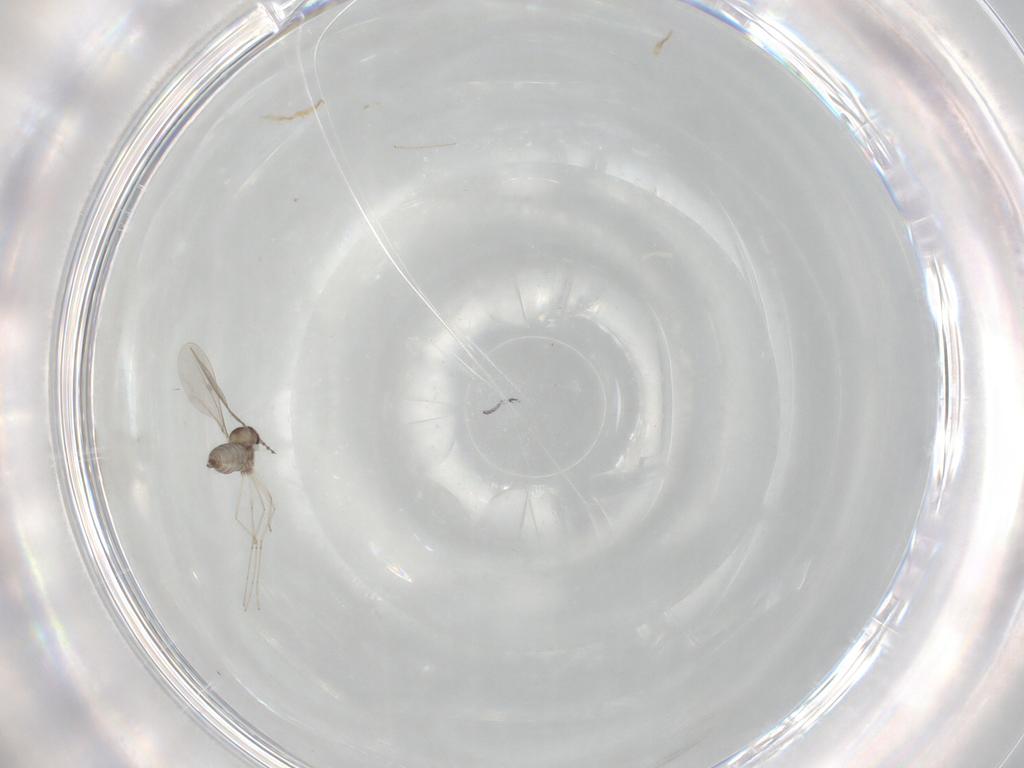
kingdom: Animalia
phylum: Arthropoda
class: Insecta
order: Diptera
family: Cecidomyiidae
